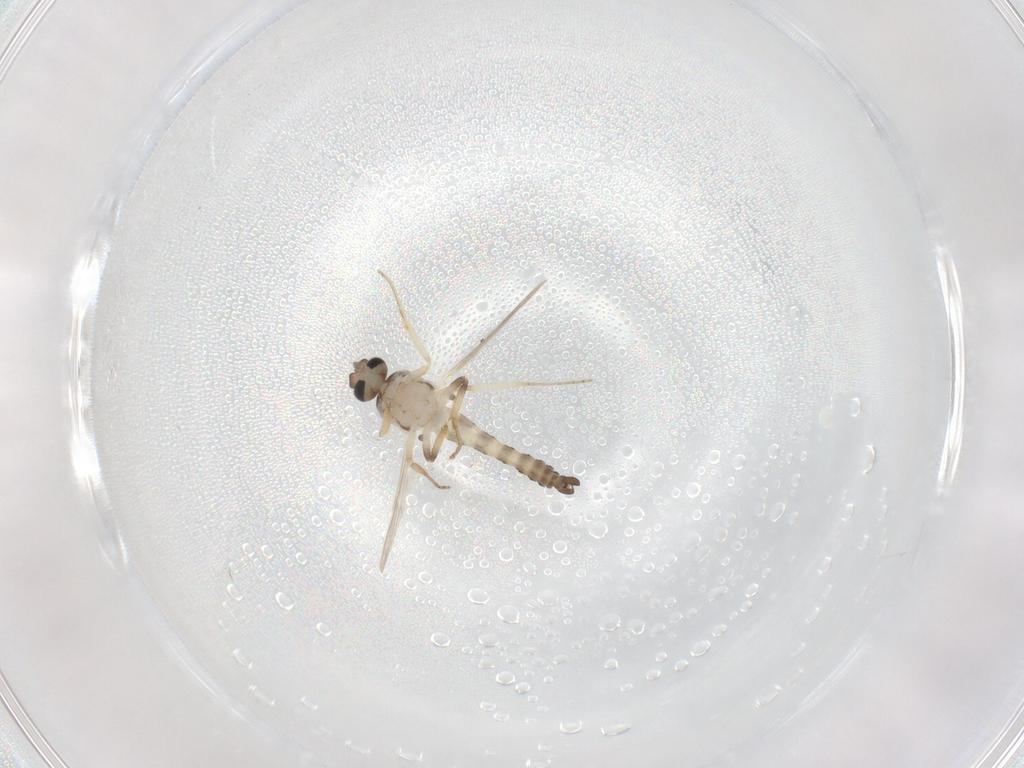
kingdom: Animalia
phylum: Arthropoda
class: Insecta
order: Diptera
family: Ceratopogonidae
